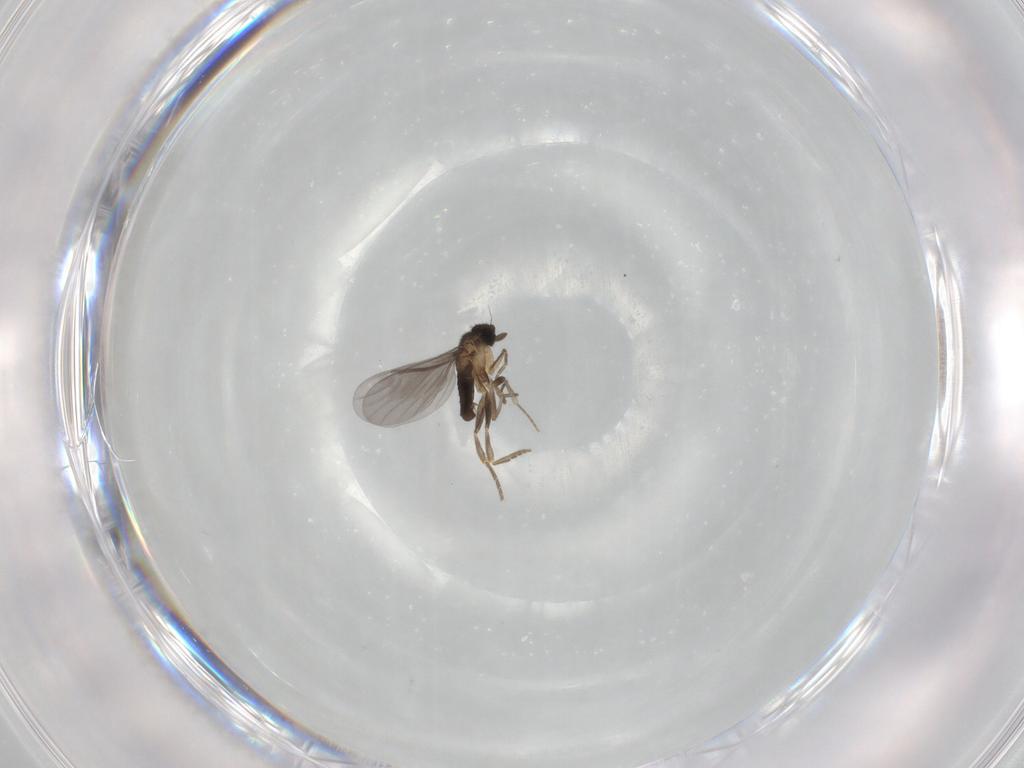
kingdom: Animalia
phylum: Arthropoda
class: Insecta
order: Diptera
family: Phoridae
